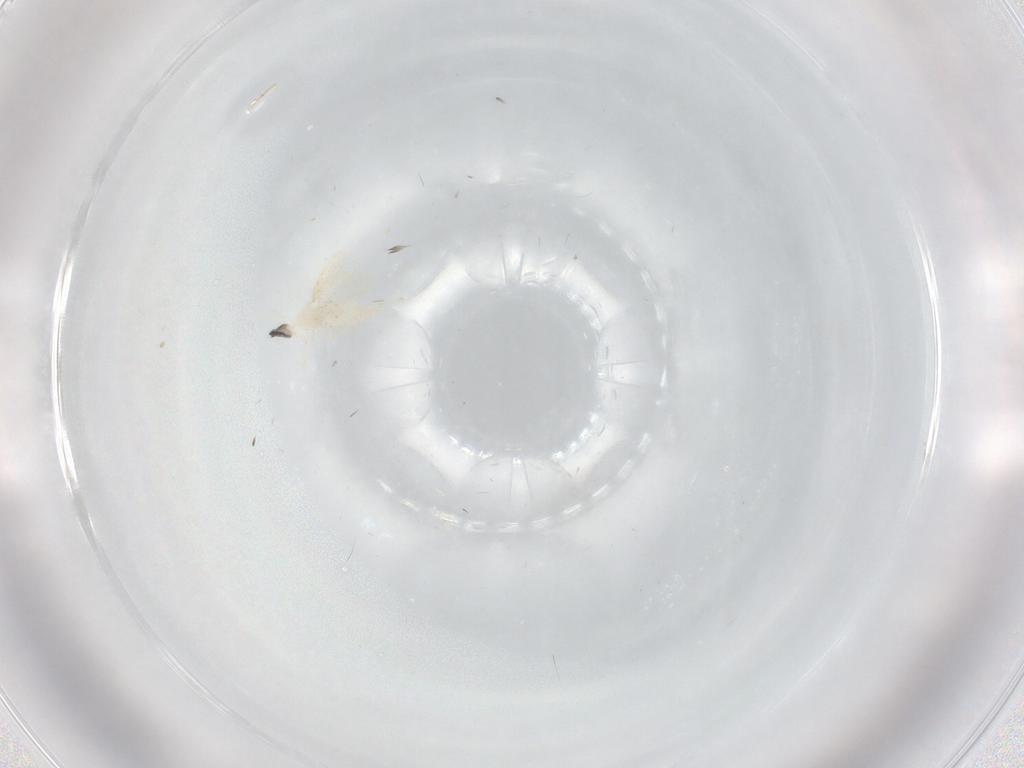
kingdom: Animalia
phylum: Arthropoda
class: Insecta
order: Diptera
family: Cecidomyiidae
